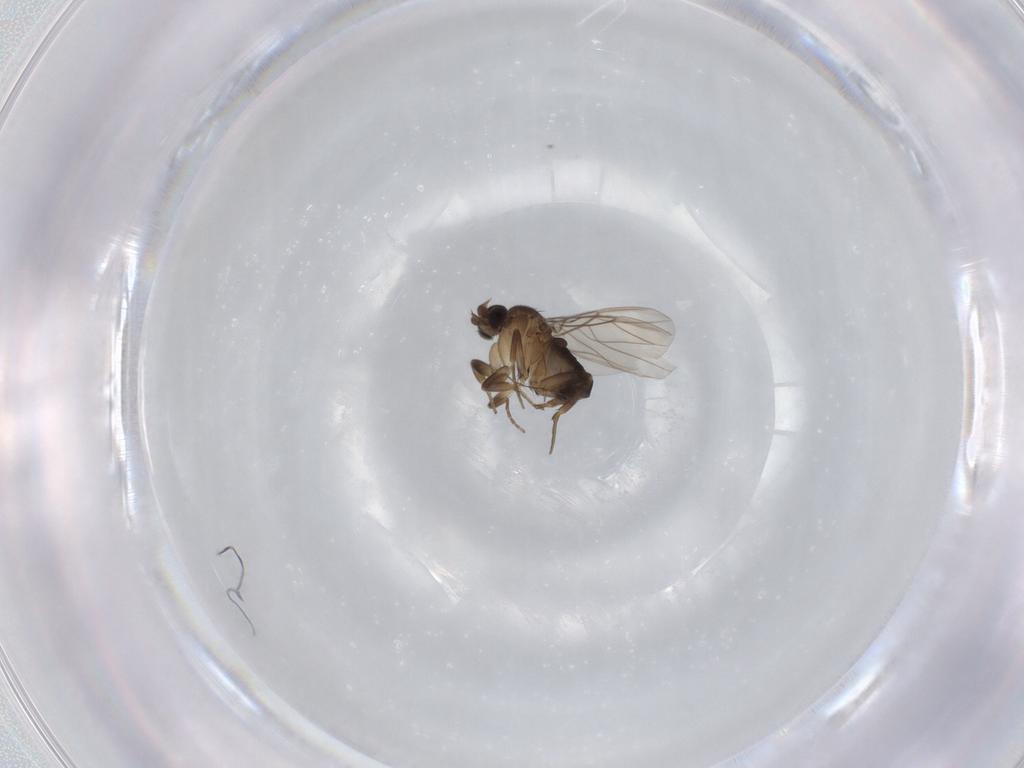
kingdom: Animalia
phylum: Arthropoda
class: Insecta
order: Diptera
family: Phoridae
